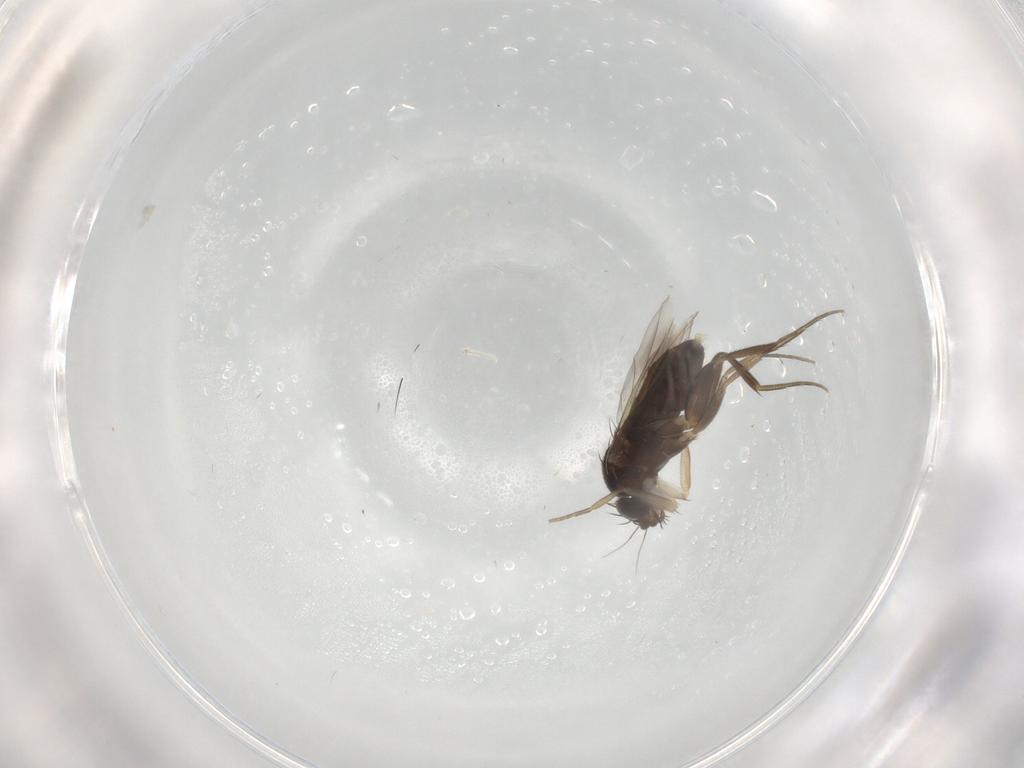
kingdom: Animalia
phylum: Arthropoda
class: Insecta
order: Diptera
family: Phoridae
